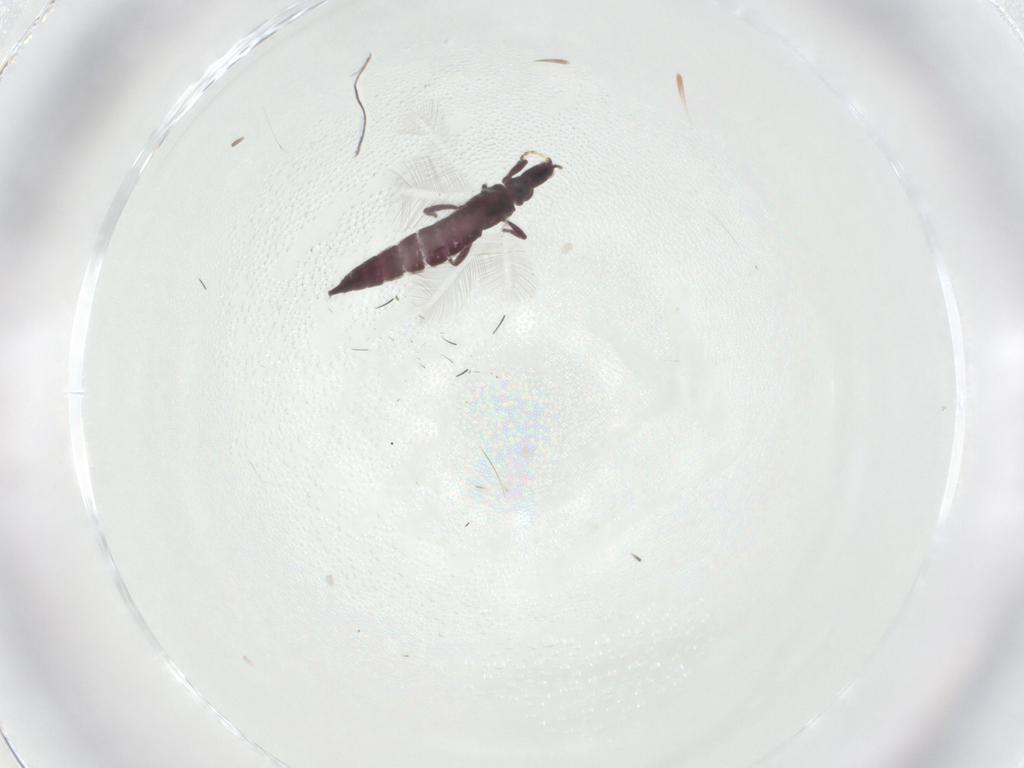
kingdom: Animalia
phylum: Arthropoda
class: Insecta
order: Thysanoptera
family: Phlaeothripidae
